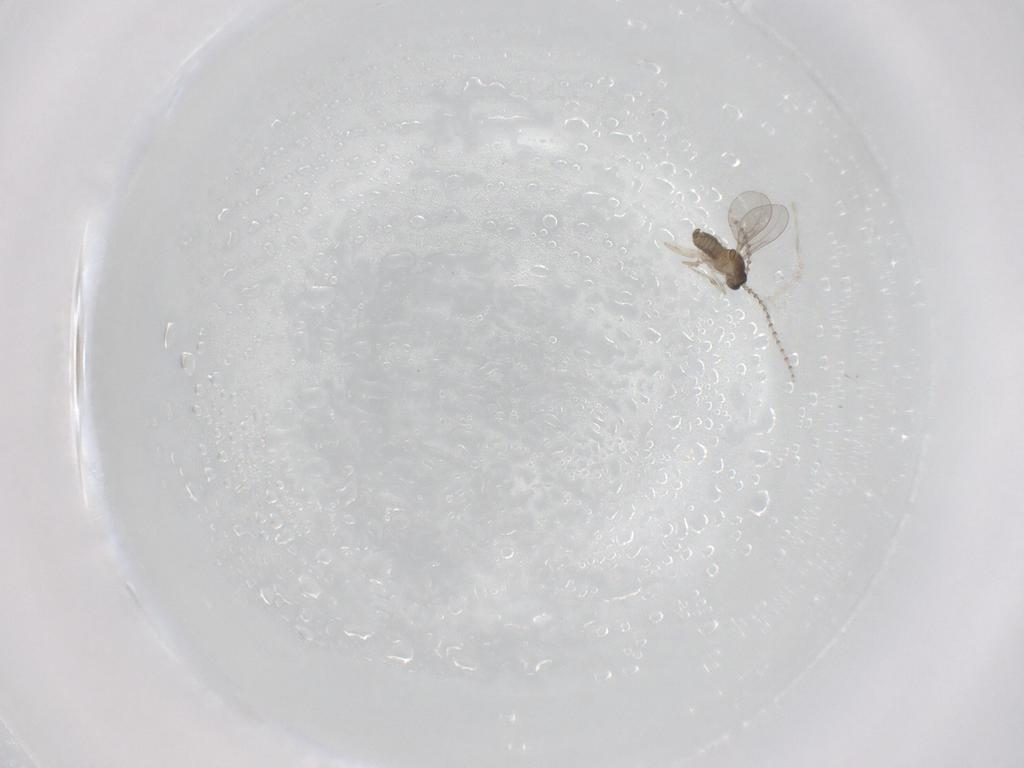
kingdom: Animalia
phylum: Arthropoda
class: Insecta
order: Diptera
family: Cecidomyiidae
